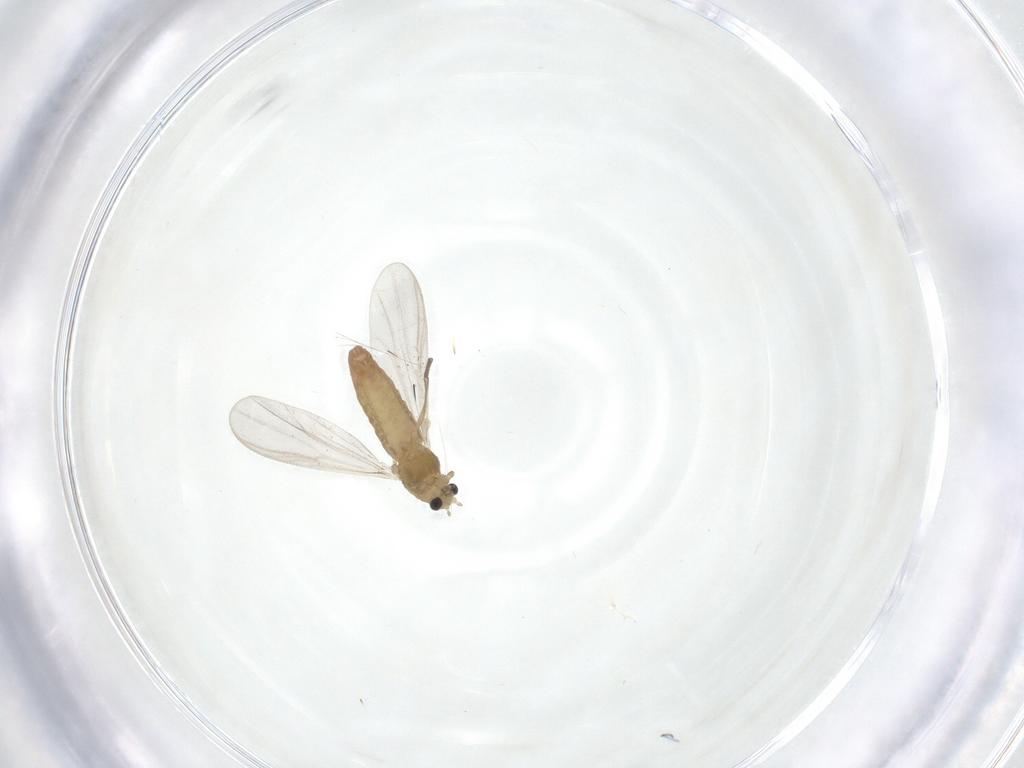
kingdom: Animalia
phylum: Arthropoda
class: Insecta
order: Diptera
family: Chironomidae
